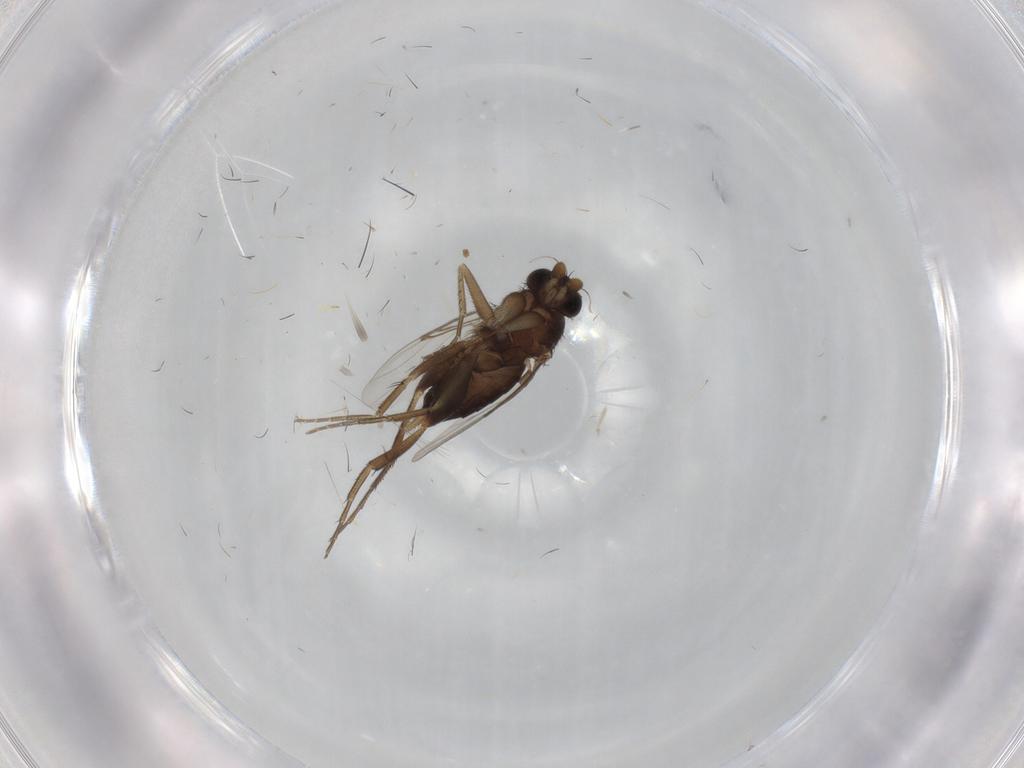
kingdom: Animalia
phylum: Arthropoda
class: Insecta
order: Diptera
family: Phoridae
